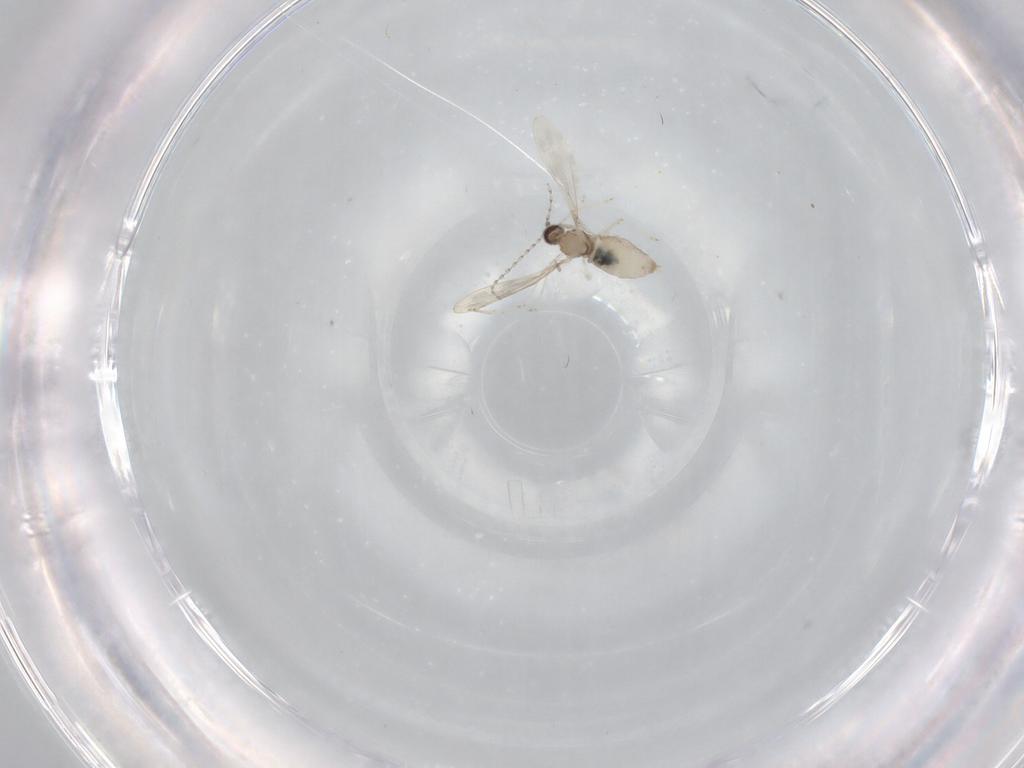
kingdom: Animalia
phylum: Arthropoda
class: Insecta
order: Diptera
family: Cecidomyiidae
